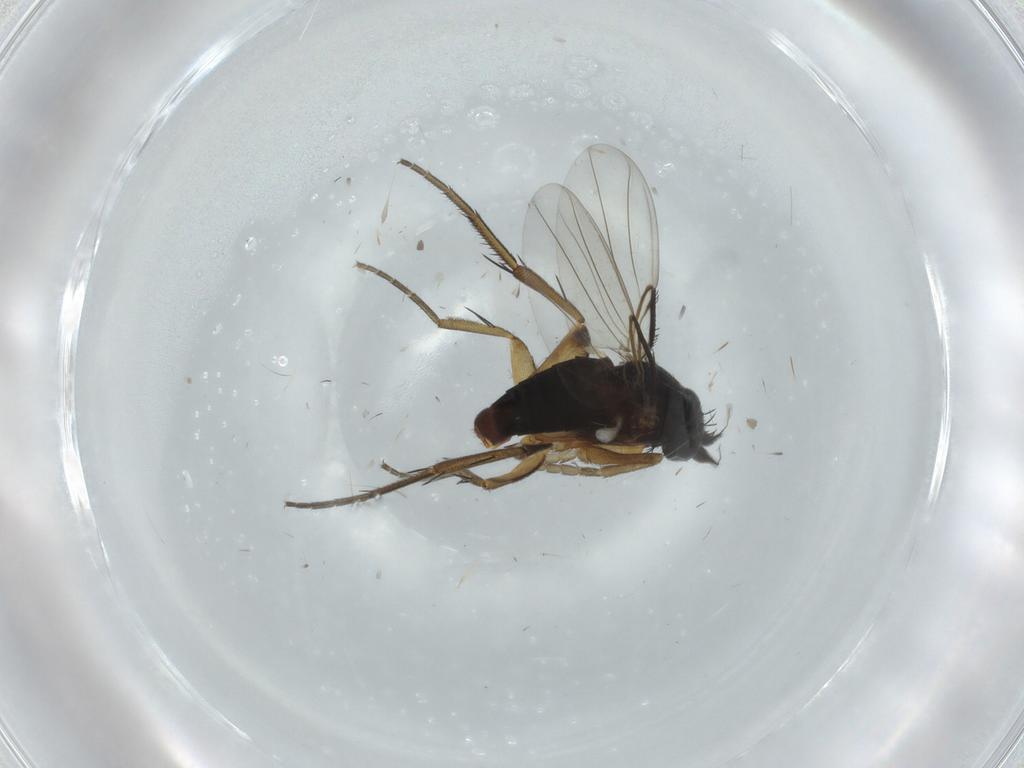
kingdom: Animalia
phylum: Arthropoda
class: Insecta
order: Diptera
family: Phoridae
